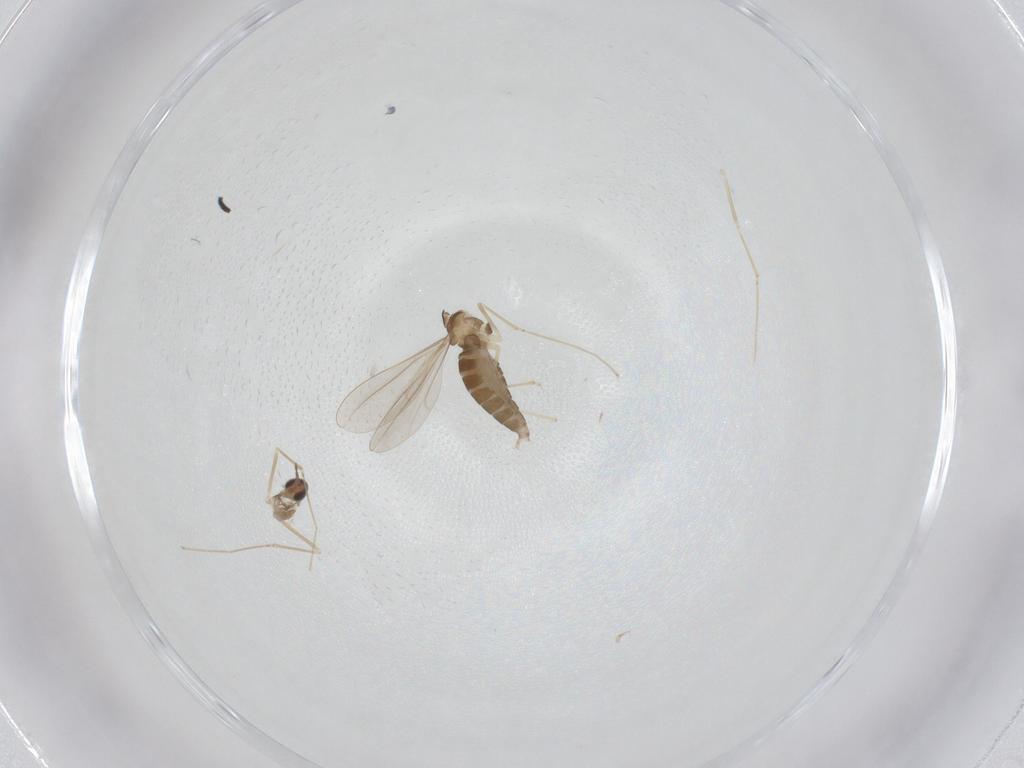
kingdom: Animalia
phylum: Arthropoda
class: Insecta
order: Diptera
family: Cecidomyiidae
